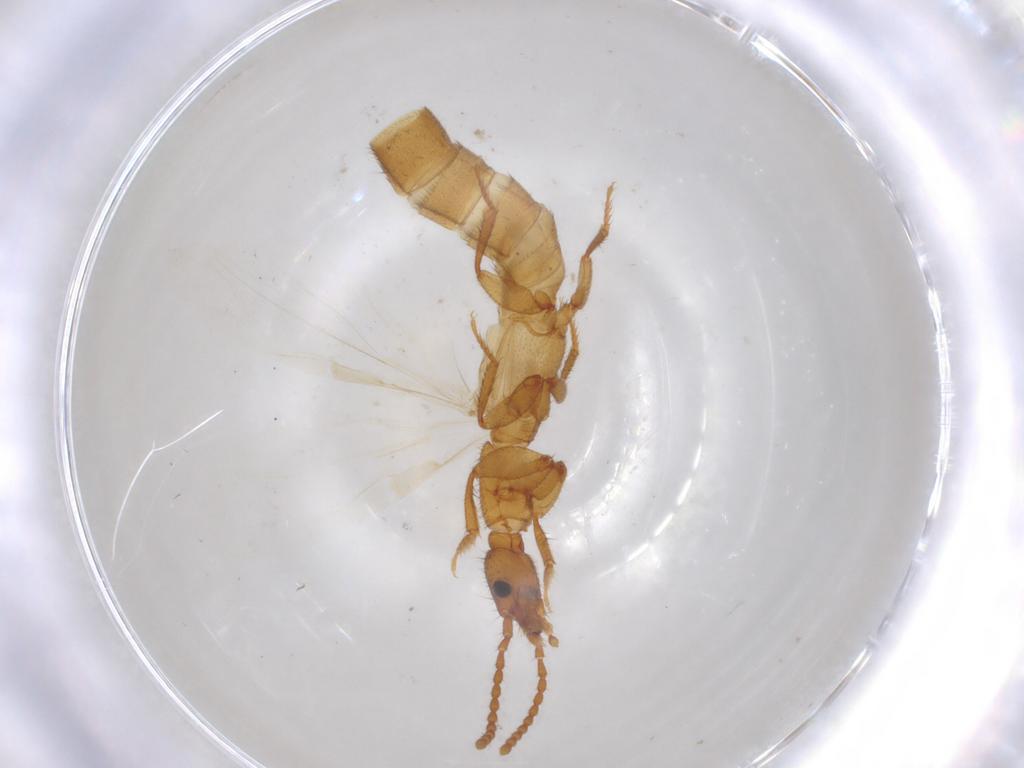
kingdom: Animalia
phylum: Arthropoda
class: Insecta
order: Coleoptera
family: Staphylinidae
